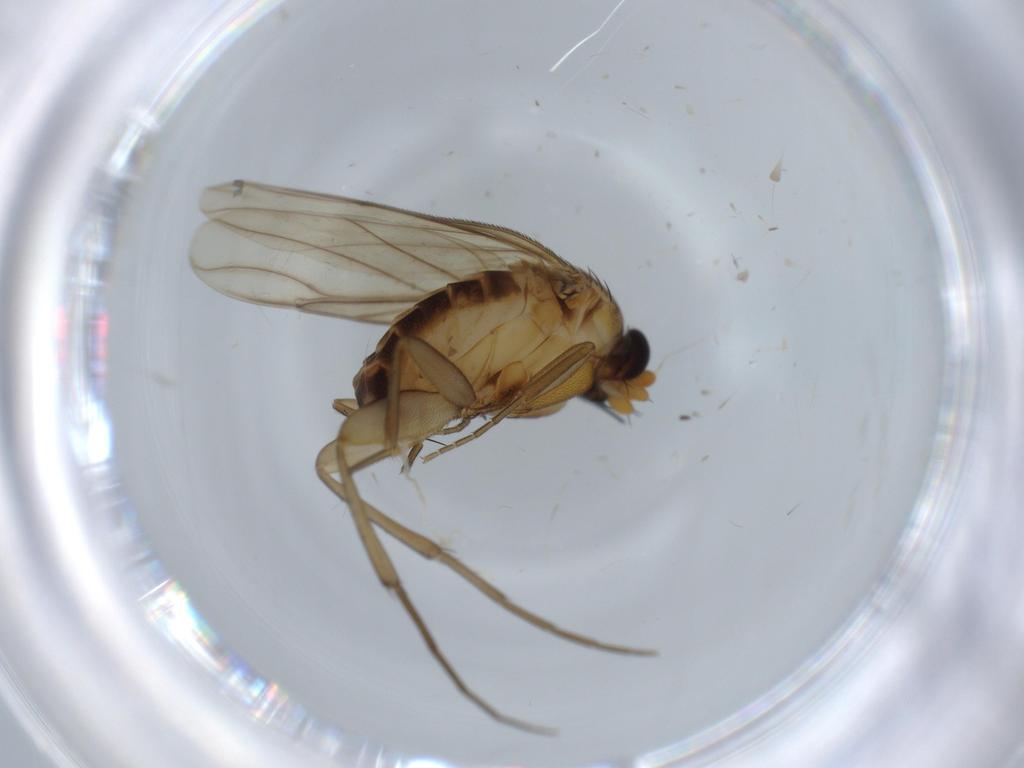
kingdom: Animalia
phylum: Arthropoda
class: Insecta
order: Diptera
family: Phoridae
